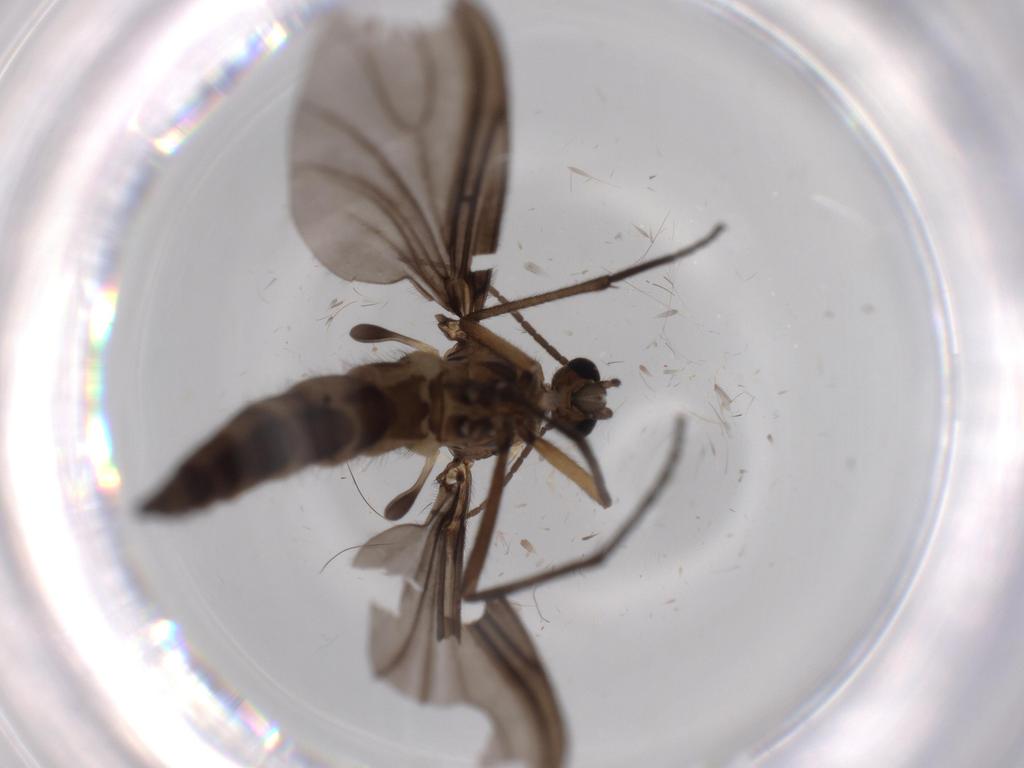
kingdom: Animalia
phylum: Arthropoda
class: Insecta
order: Diptera
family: Sciaridae
